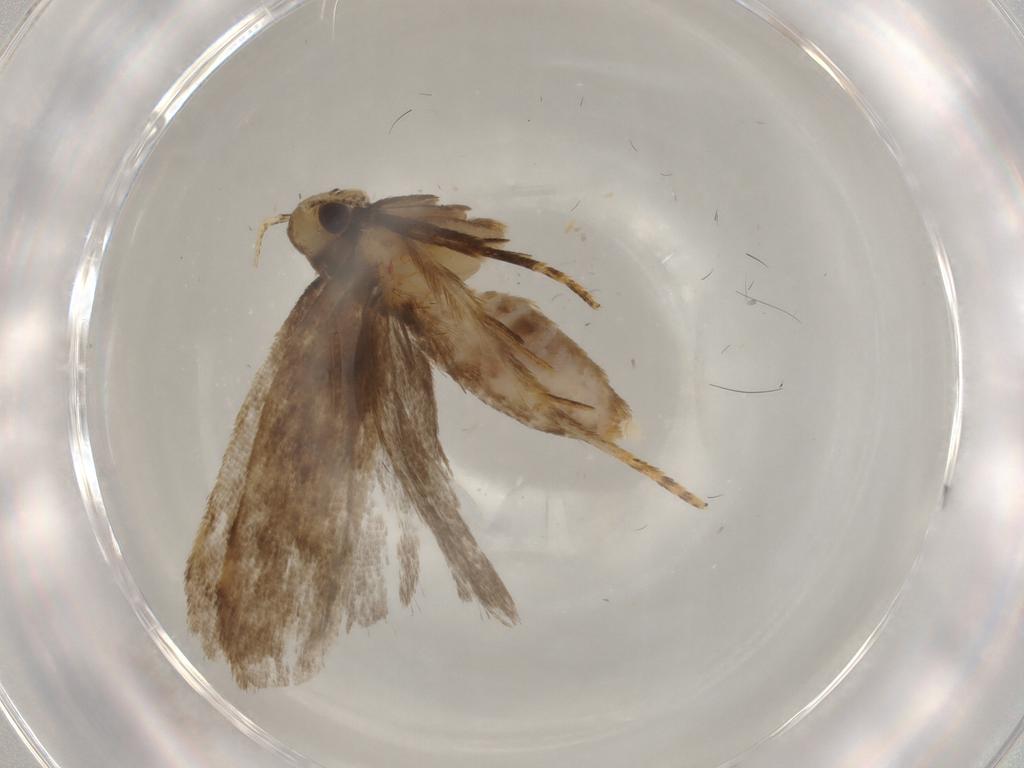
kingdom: Animalia
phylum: Arthropoda
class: Insecta
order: Lepidoptera
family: Gelechiidae
